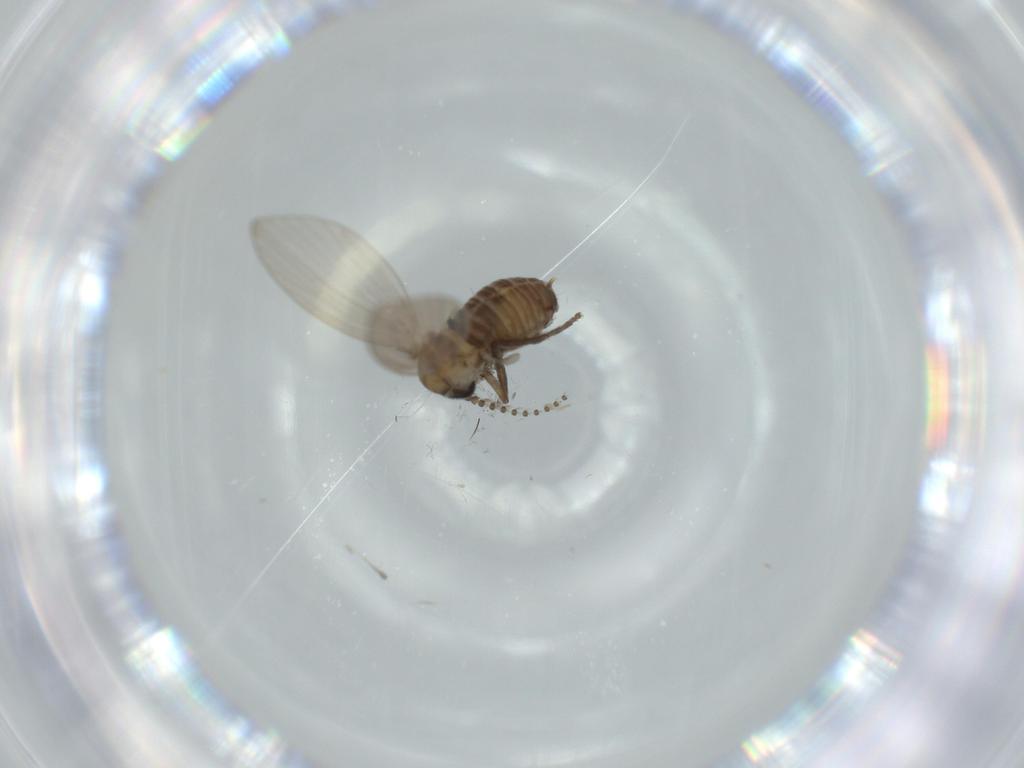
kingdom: Animalia
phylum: Arthropoda
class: Insecta
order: Diptera
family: Psychodidae
